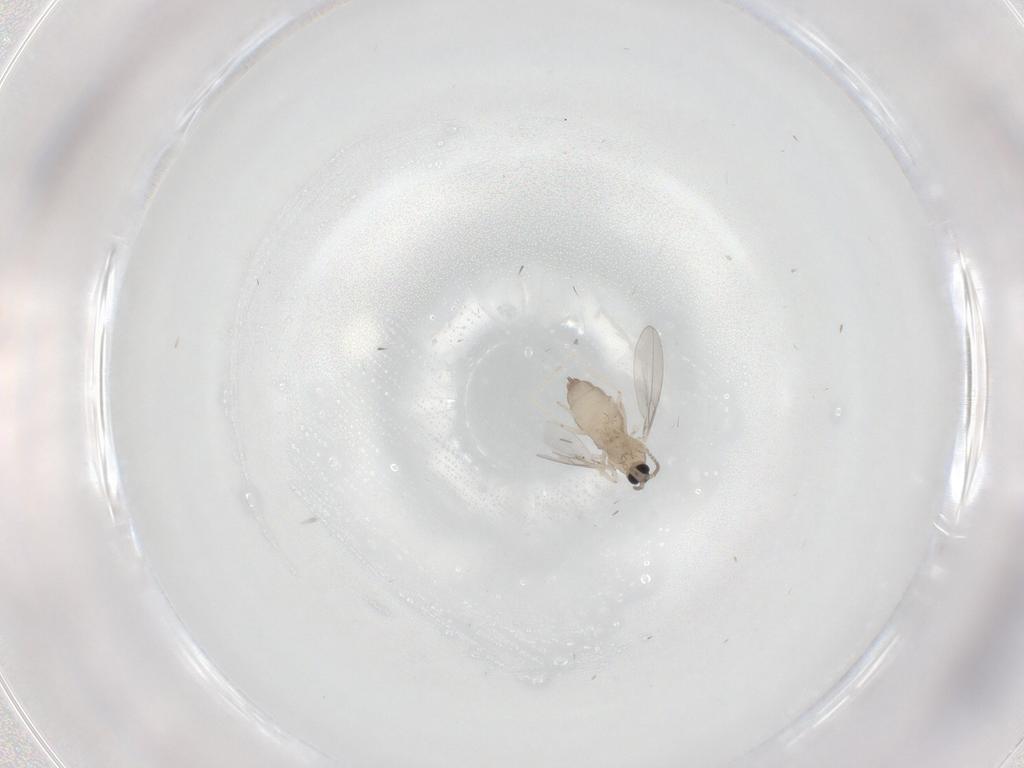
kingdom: Animalia
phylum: Arthropoda
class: Insecta
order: Diptera
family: Cecidomyiidae
